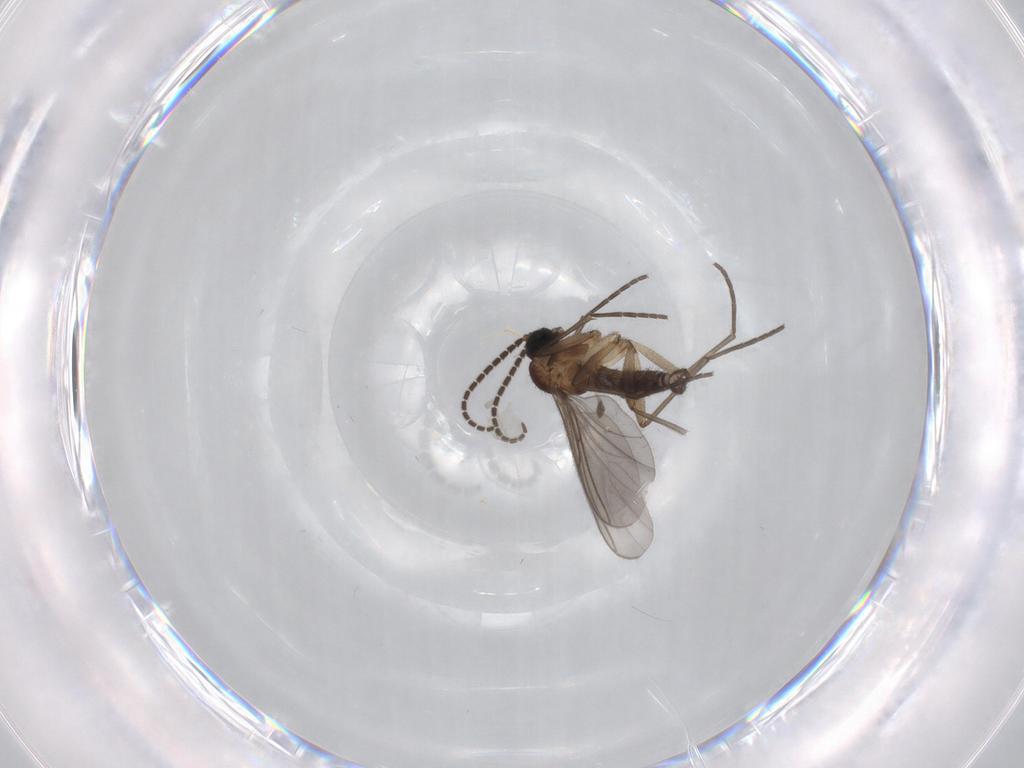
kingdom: Animalia
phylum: Arthropoda
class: Insecta
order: Diptera
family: Sciaridae
